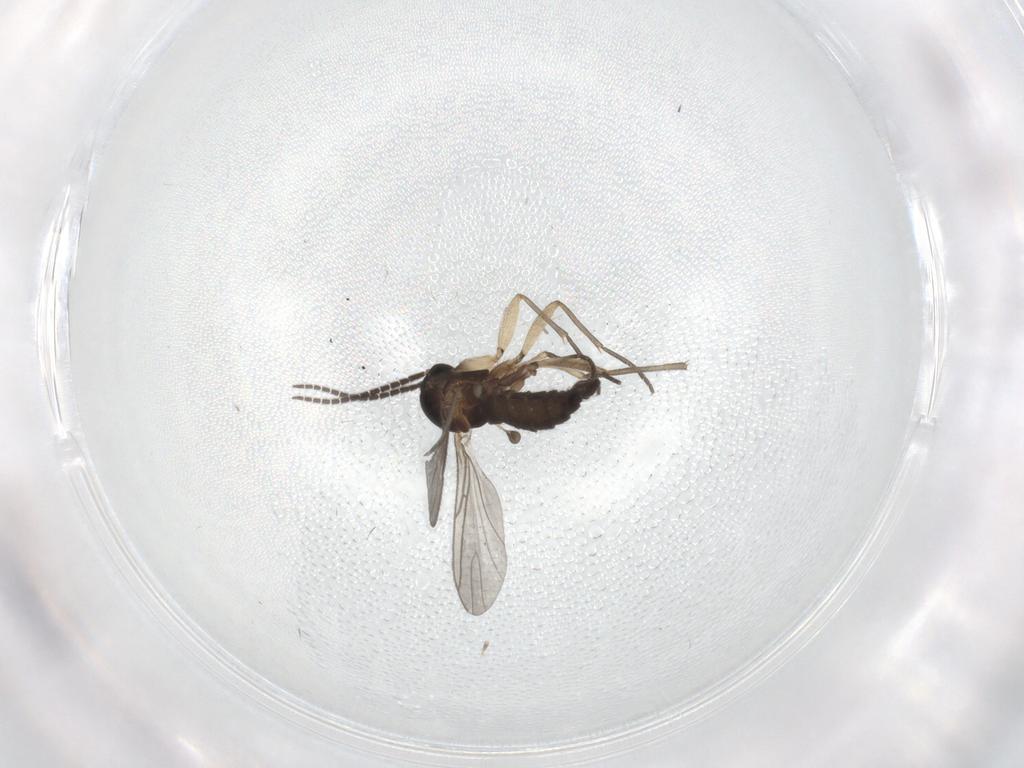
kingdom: Animalia
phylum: Arthropoda
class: Insecta
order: Diptera
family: Sciaridae
